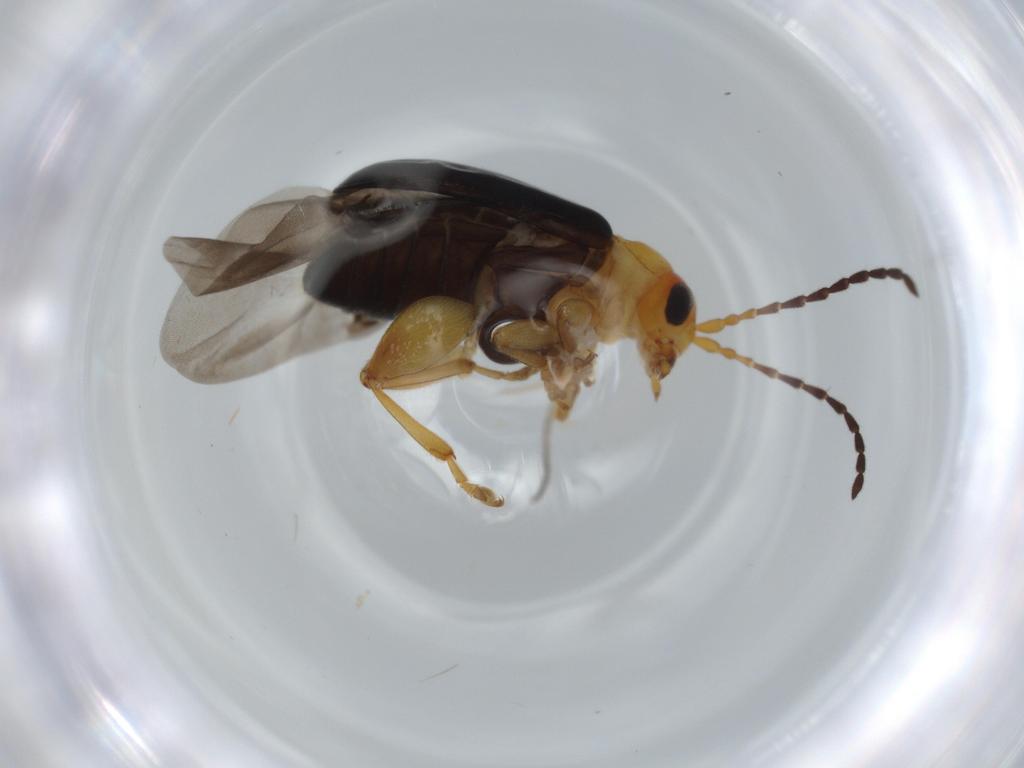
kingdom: Animalia
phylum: Arthropoda
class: Insecta
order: Coleoptera
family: Chrysomelidae
